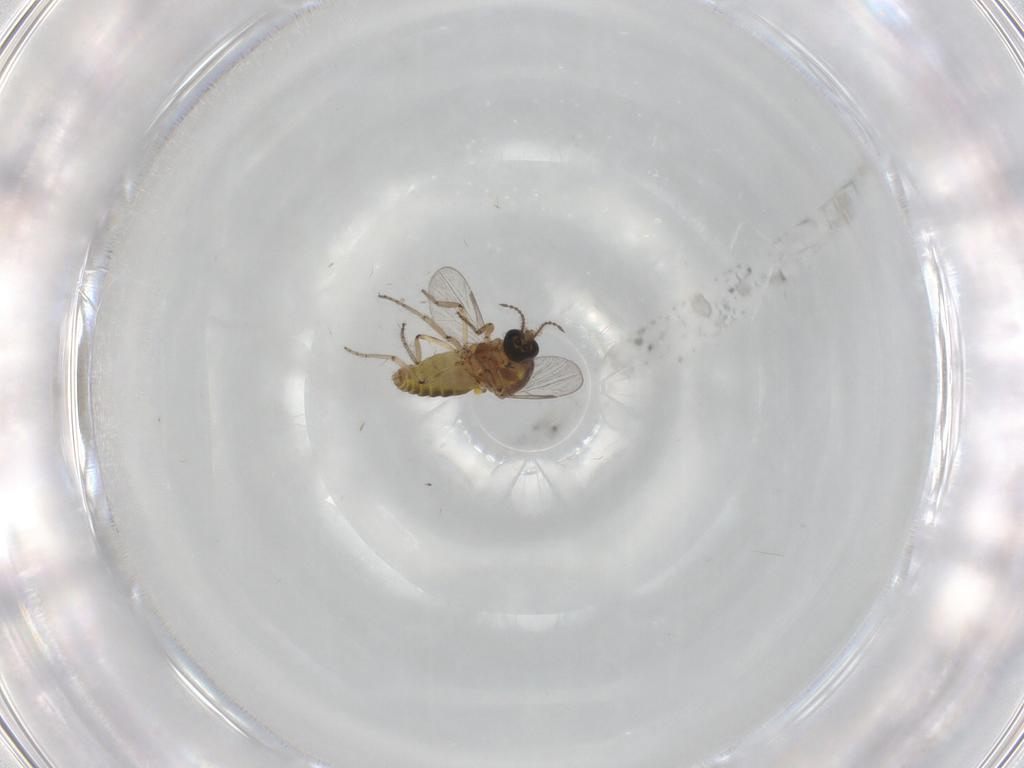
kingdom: Animalia
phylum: Arthropoda
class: Insecta
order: Diptera
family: Ceratopogonidae
